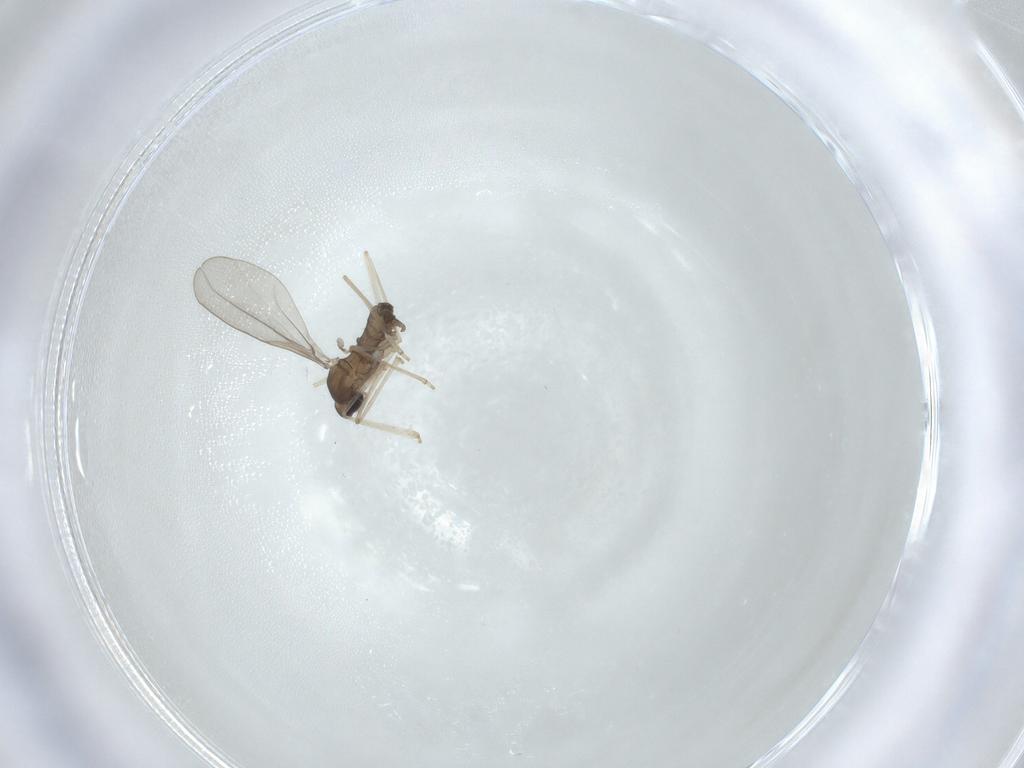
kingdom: Animalia
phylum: Arthropoda
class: Insecta
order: Diptera
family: Cecidomyiidae
